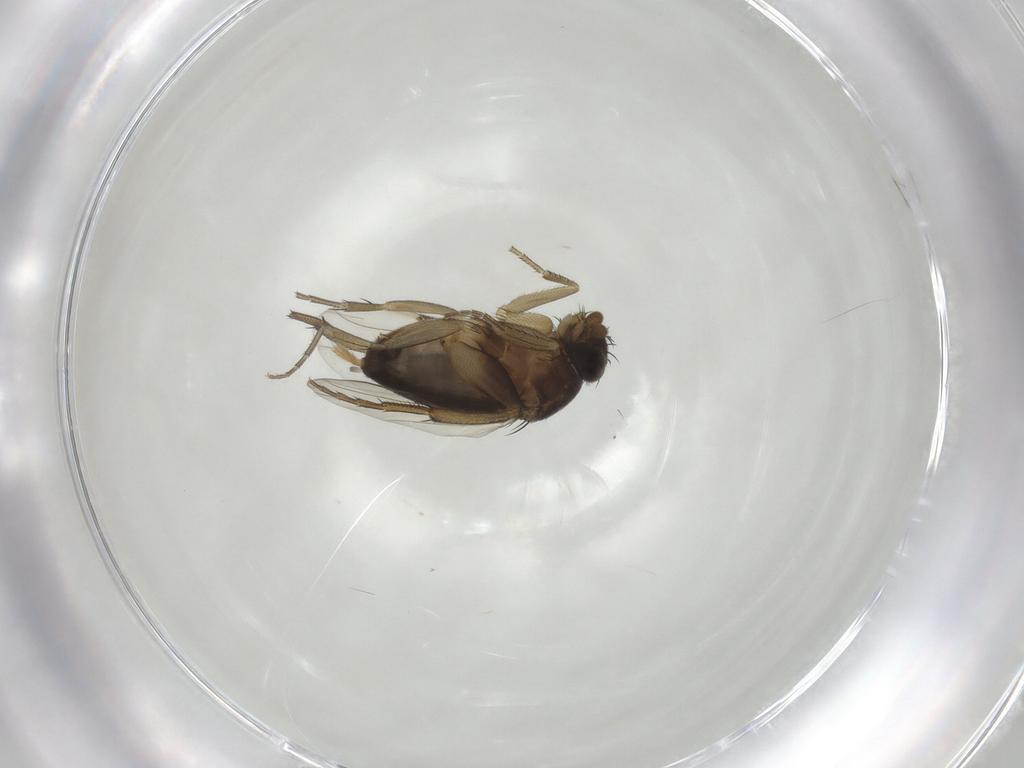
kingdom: Animalia
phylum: Arthropoda
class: Insecta
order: Diptera
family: Phoridae
